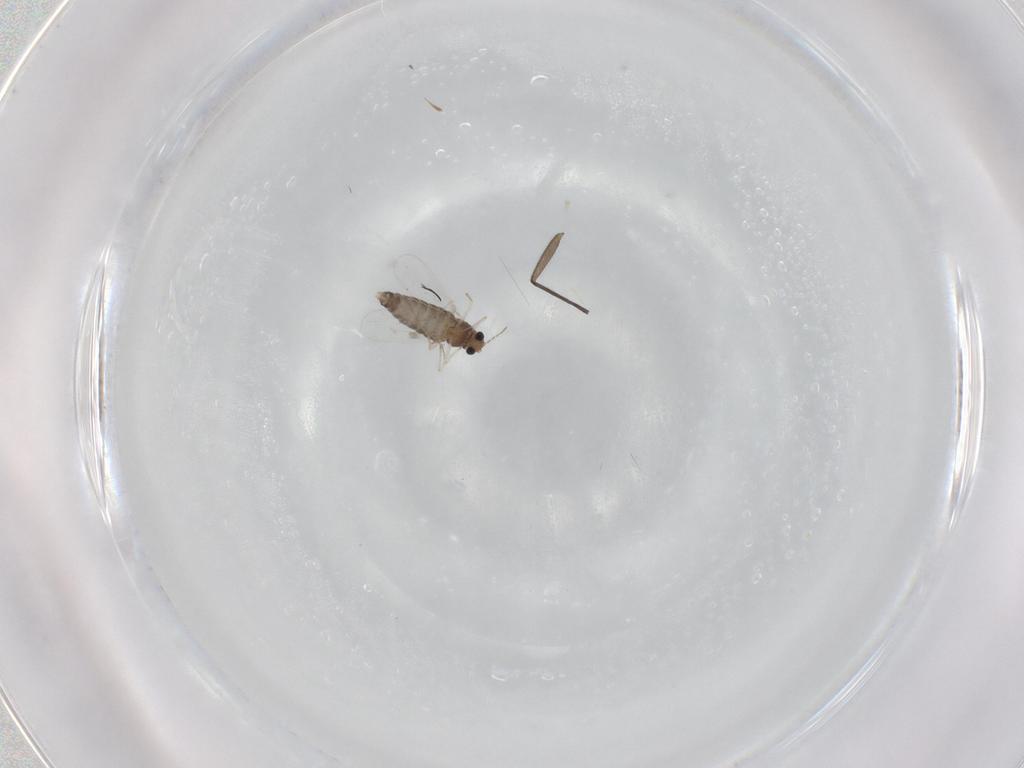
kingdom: Animalia
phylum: Arthropoda
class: Insecta
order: Diptera
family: Chironomidae
